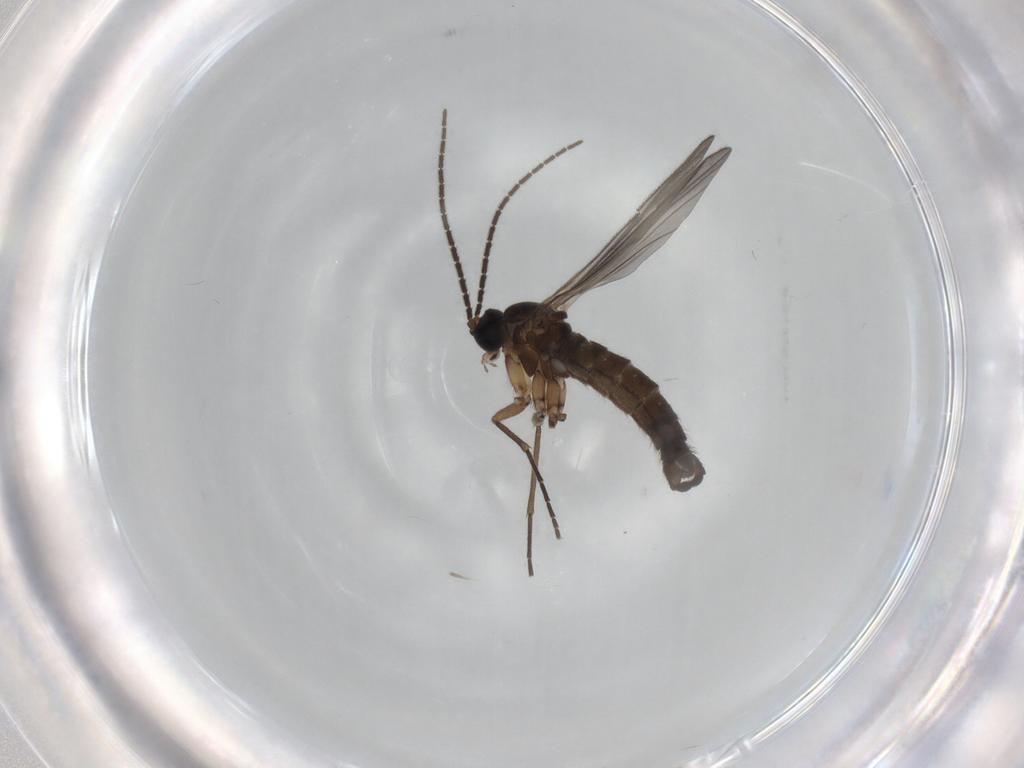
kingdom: Animalia
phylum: Arthropoda
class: Insecta
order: Diptera
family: Sciaridae
